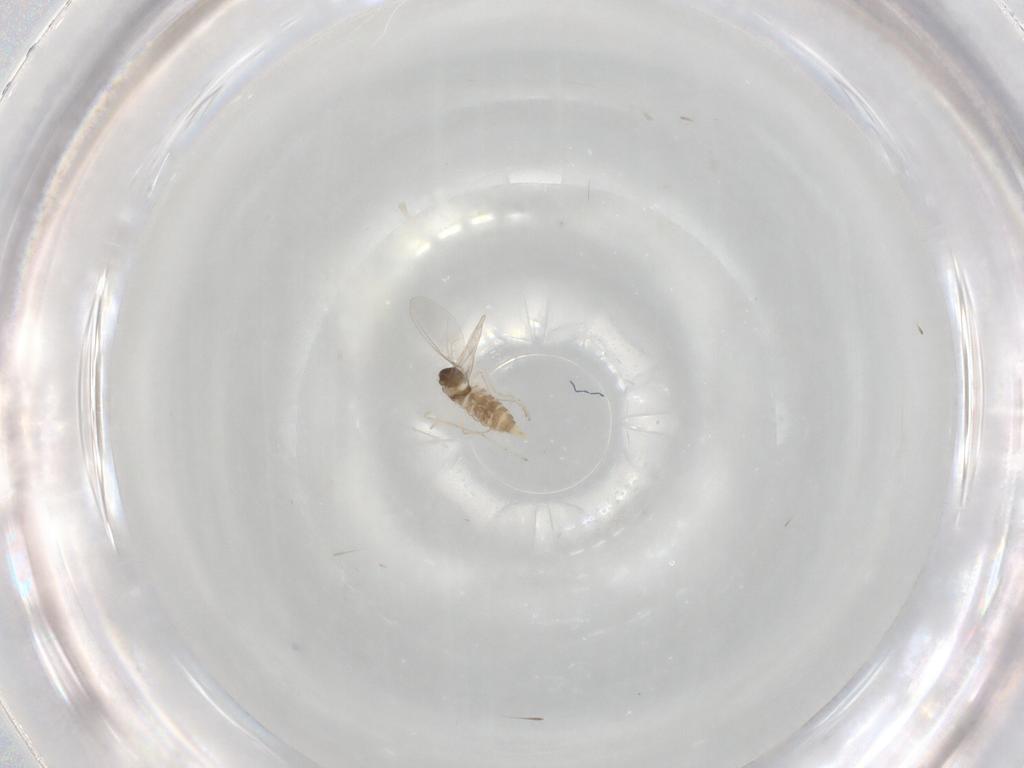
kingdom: Animalia
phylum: Arthropoda
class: Insecta
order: Diptera
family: Cecidomyiidae
